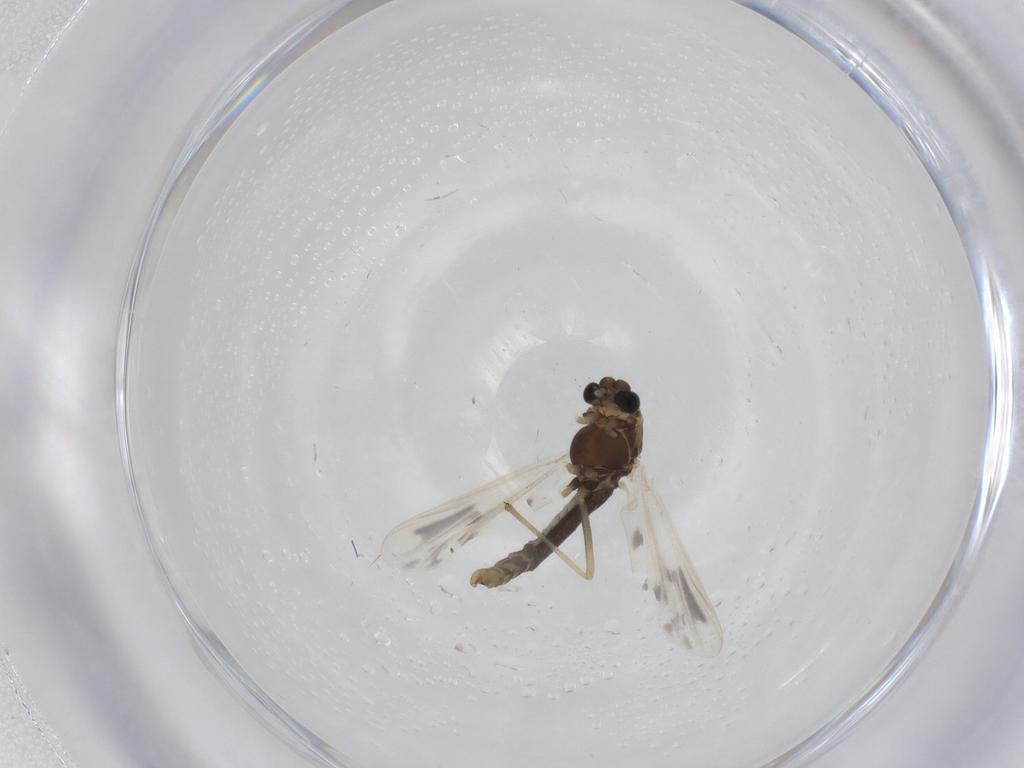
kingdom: Animalia
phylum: Arthropoda
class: Insecta
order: Diptera
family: Chironomidae
